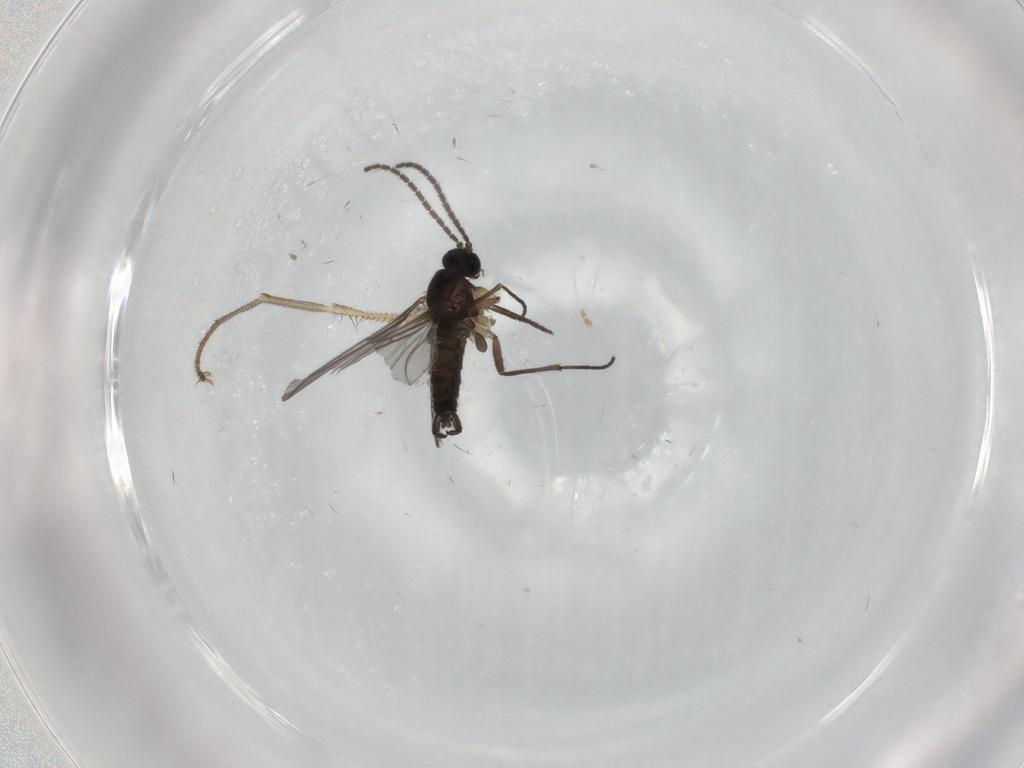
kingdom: Animalia
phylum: Arthropoda
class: Insecta
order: Diptera
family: Sciaridae
